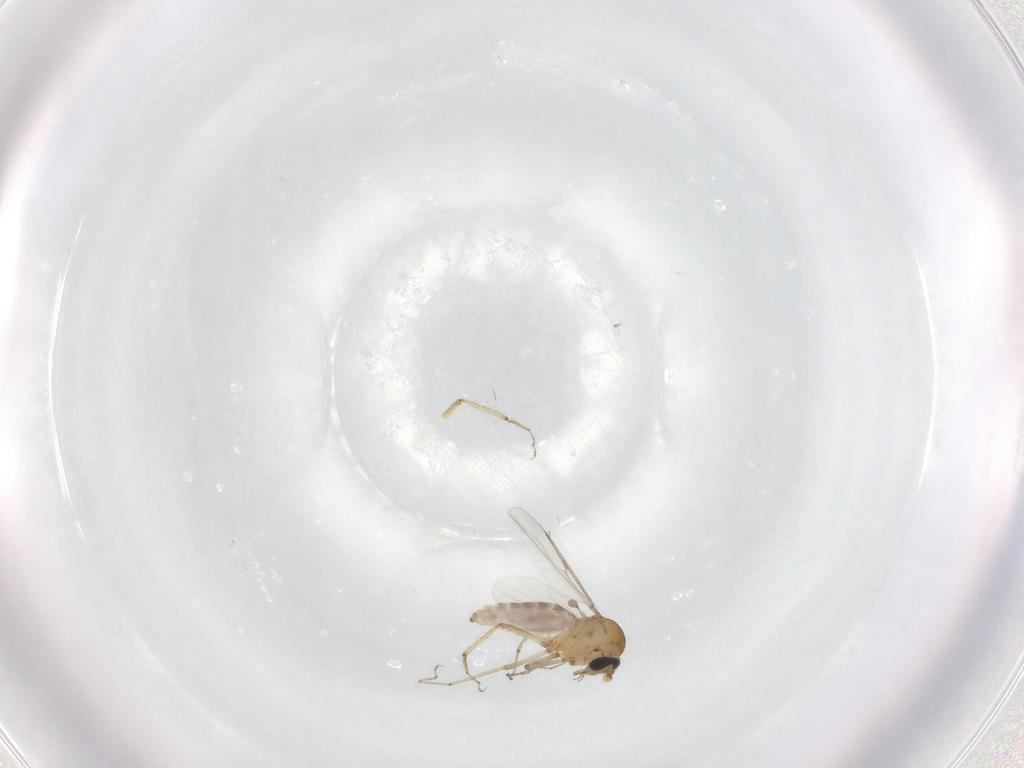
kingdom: Animalia
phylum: Arthropoda
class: Insecta
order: Diptera
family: Ceratopogonidae
